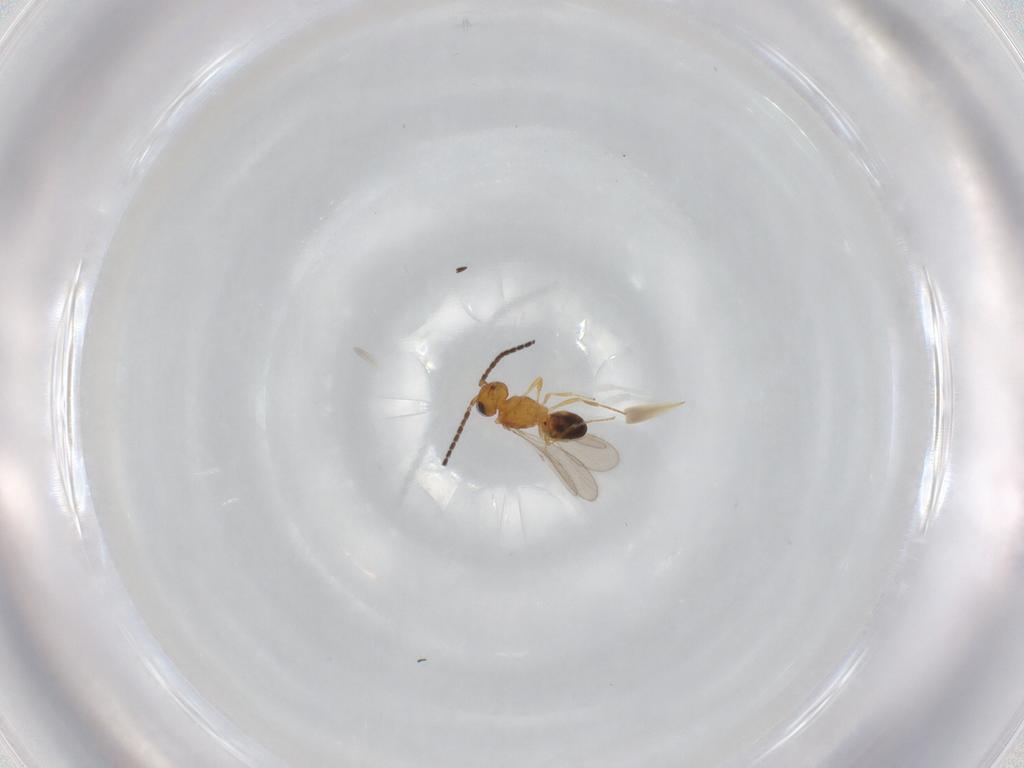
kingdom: Animalia
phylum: Arthropoda
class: Insecta
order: Hymenoptera
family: Scelionidae
